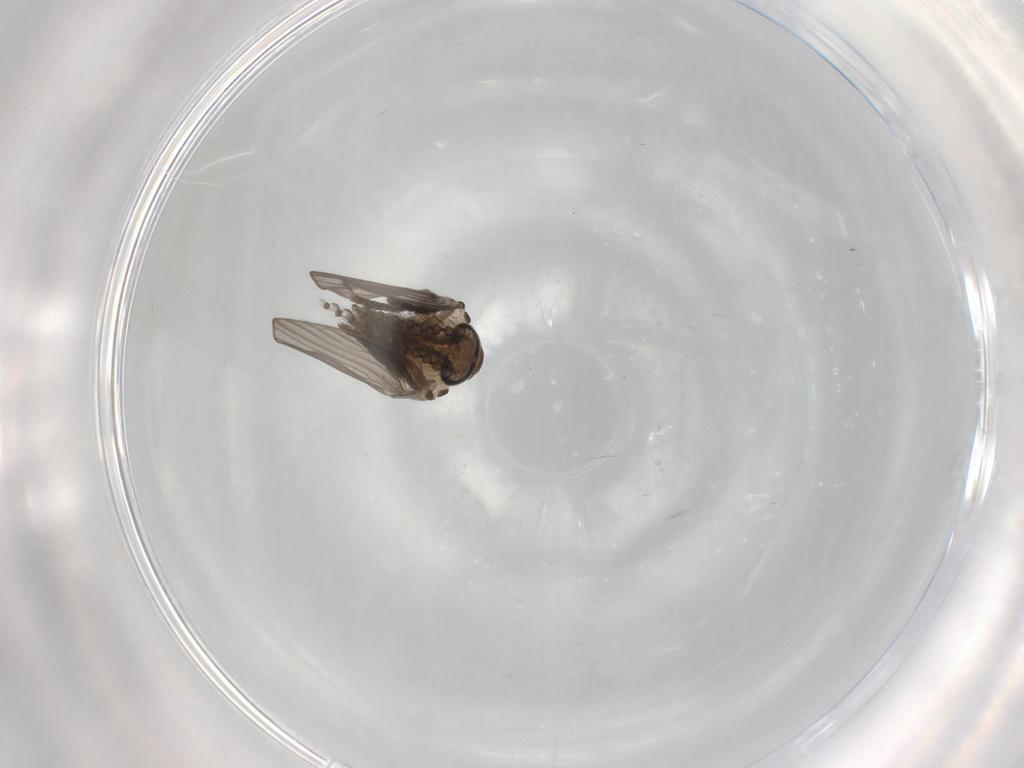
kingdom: Animalia
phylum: Arthropoda
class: Insecta
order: Diptera
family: Psychodidae
